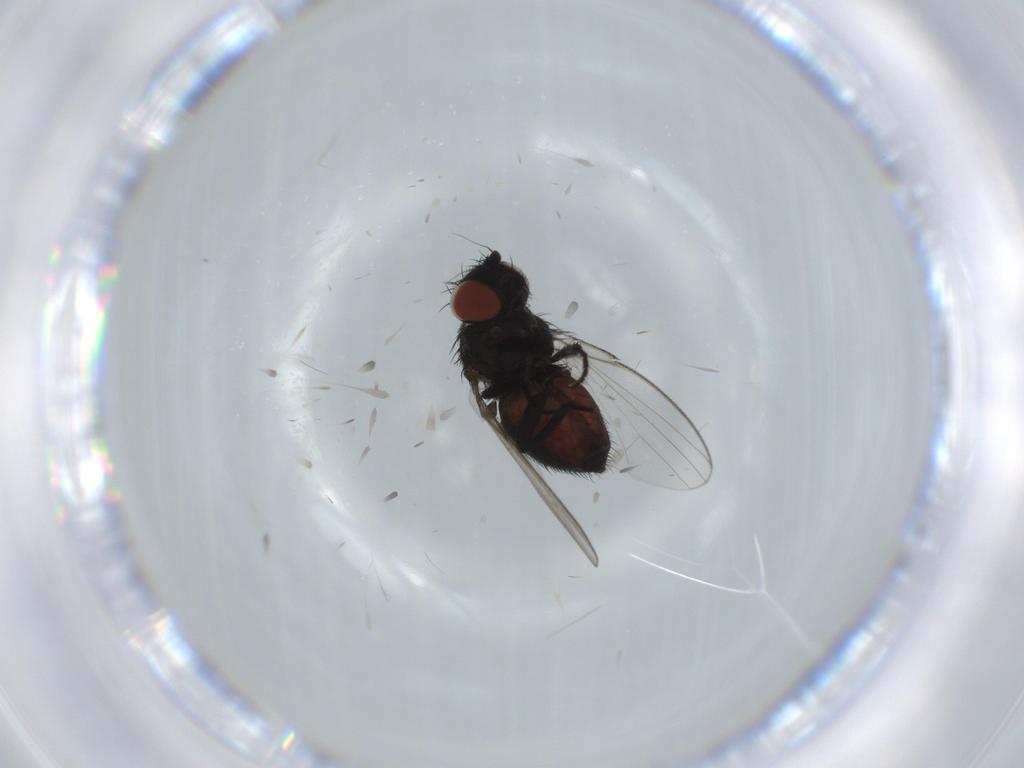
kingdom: Animalia
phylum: Arthropoda
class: Insecta
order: Diptera
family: Milichiidae
